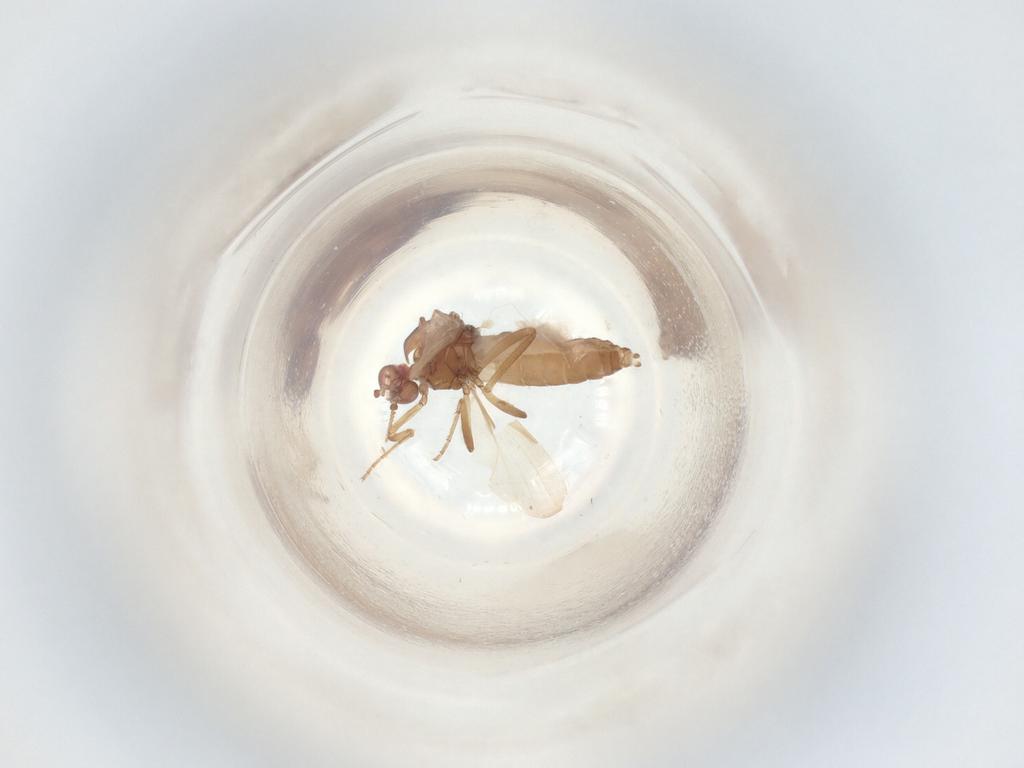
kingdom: Animalia
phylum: Arthropoda
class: Insecta
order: Diptera
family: Ceratopogonidae
